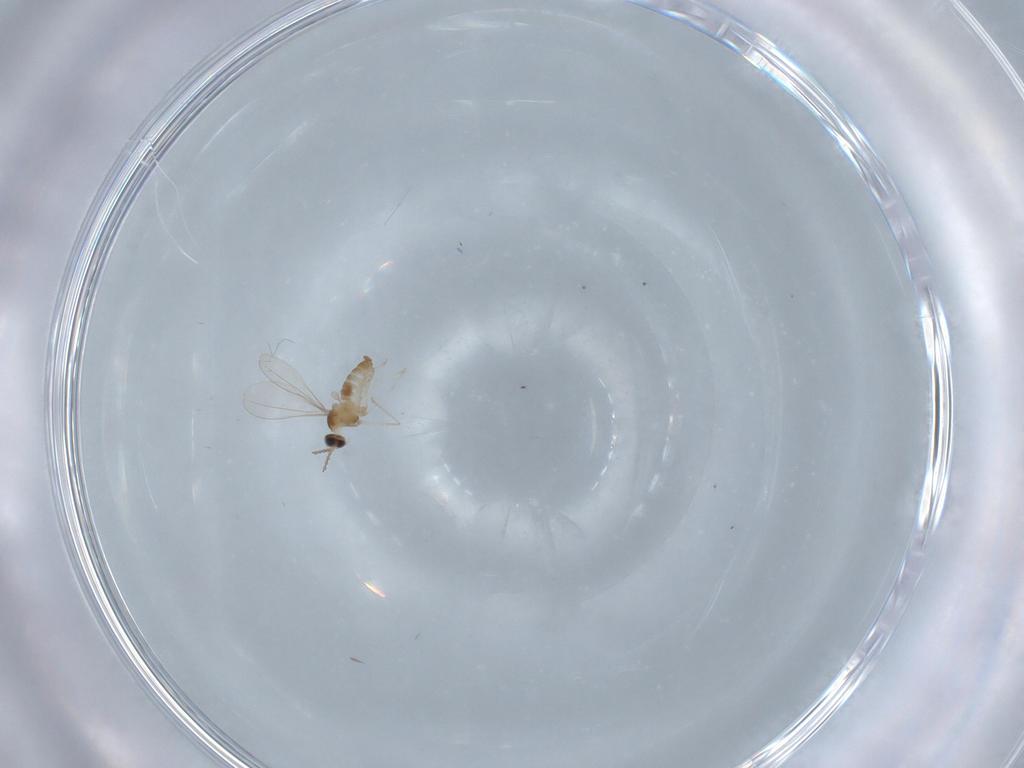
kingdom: Animalia
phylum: Arthropoda
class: Insecta
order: Diptera
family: Cecidomyiidae
